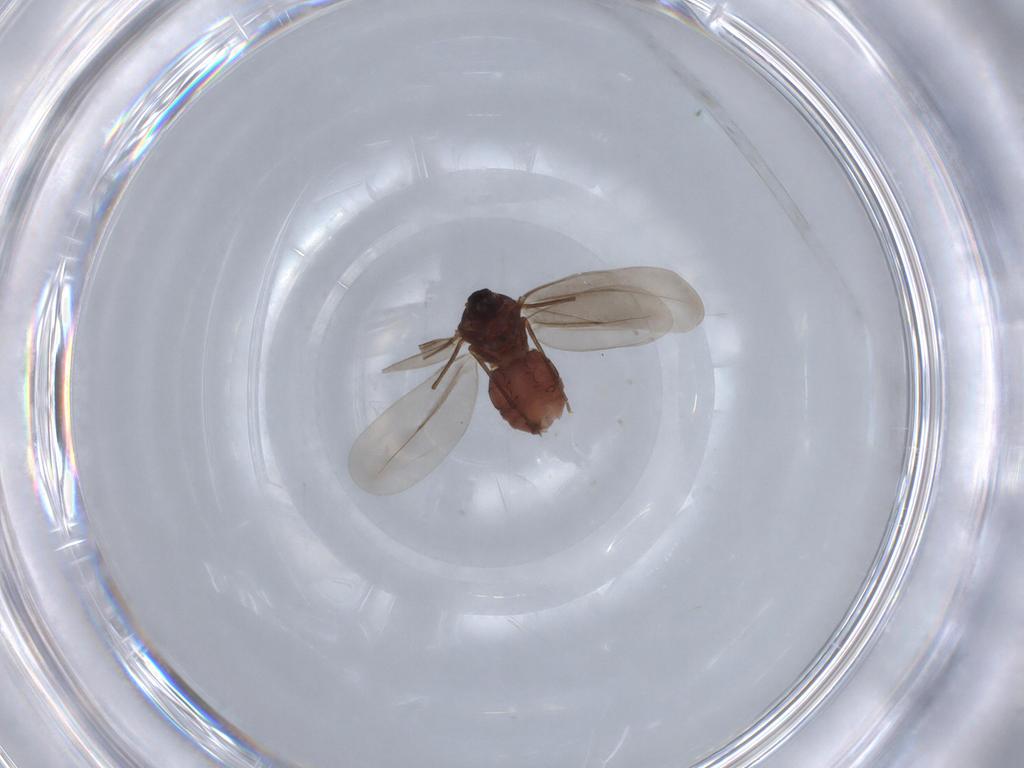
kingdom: Animalia
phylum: Arthropoda
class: Insecta
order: Hemiptera
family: Aleyrodidae
